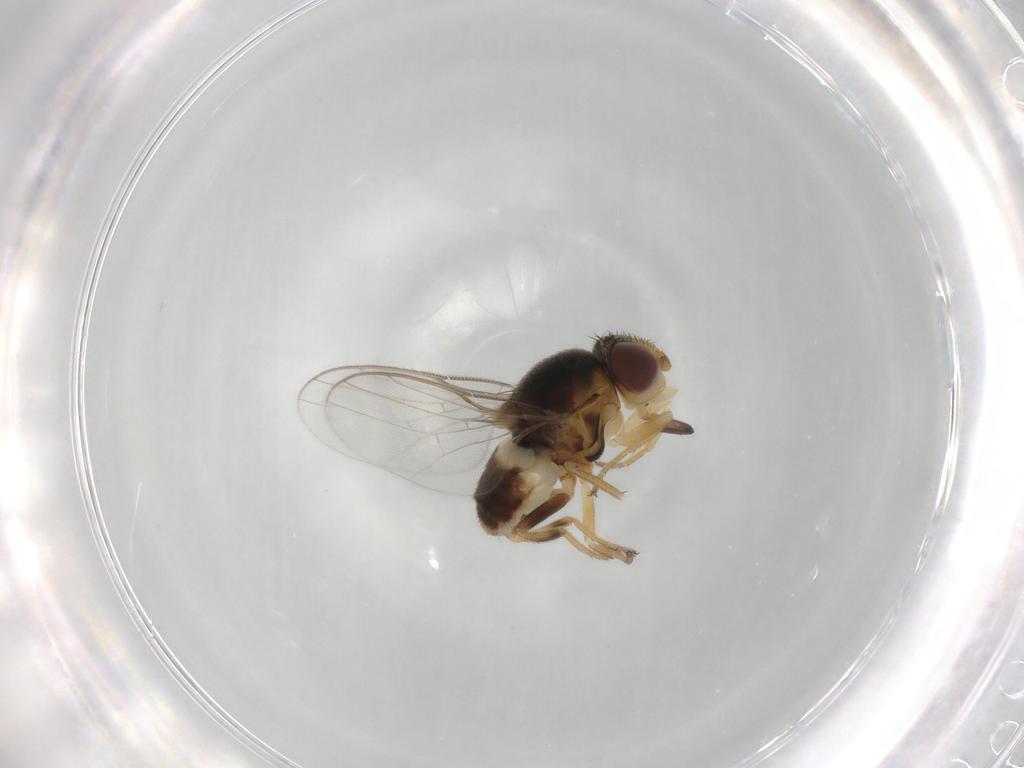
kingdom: Animalia
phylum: Arthropoda
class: Insecta
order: Diptera
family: Chloropidae
